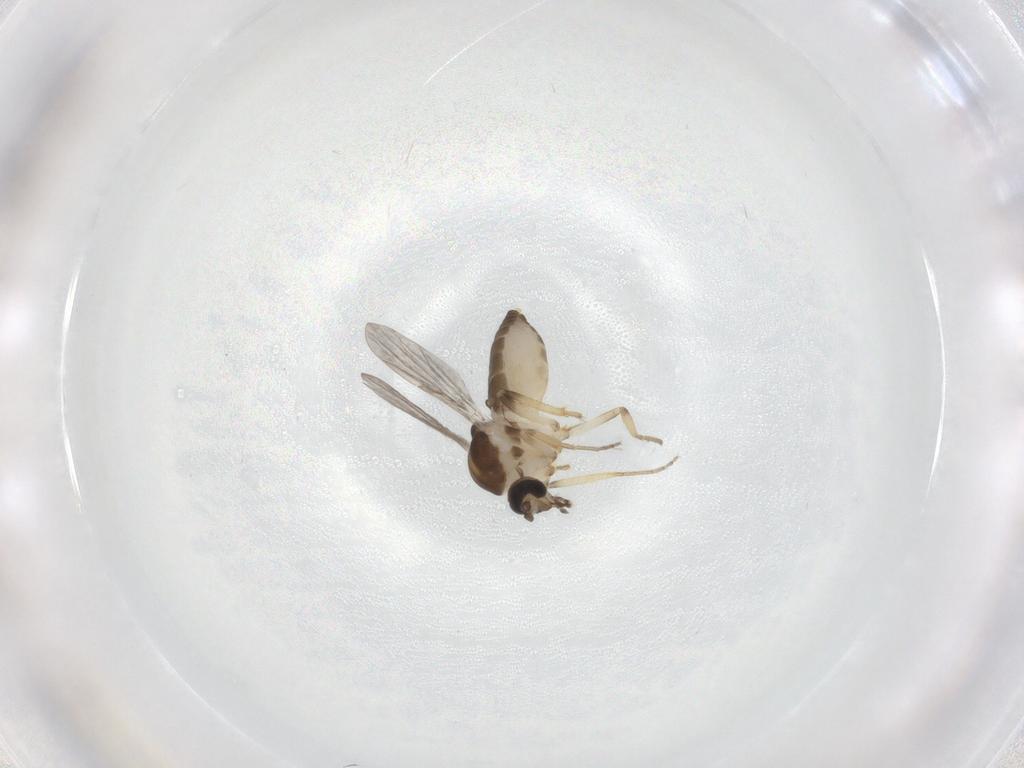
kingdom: Animalia
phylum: Arthropoda
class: Insecta
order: Diptera
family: Ceratopogonidae
